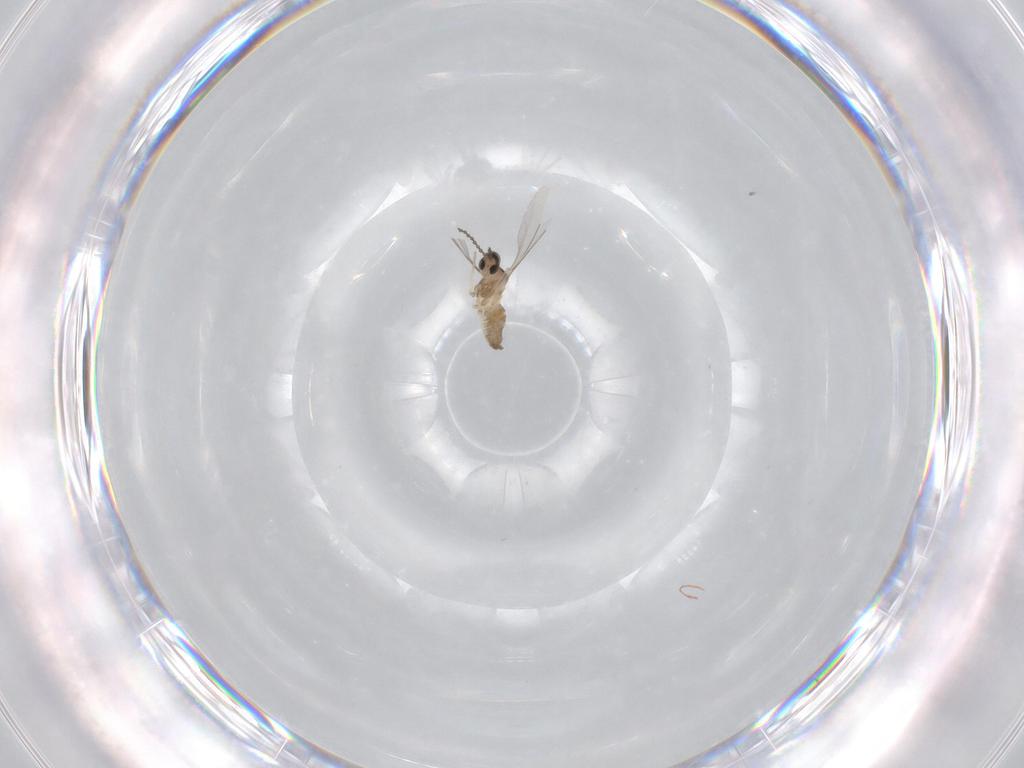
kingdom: Animalia
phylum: Arthropoda
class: Insecta
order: Diptera
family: Cecidomyiidae
